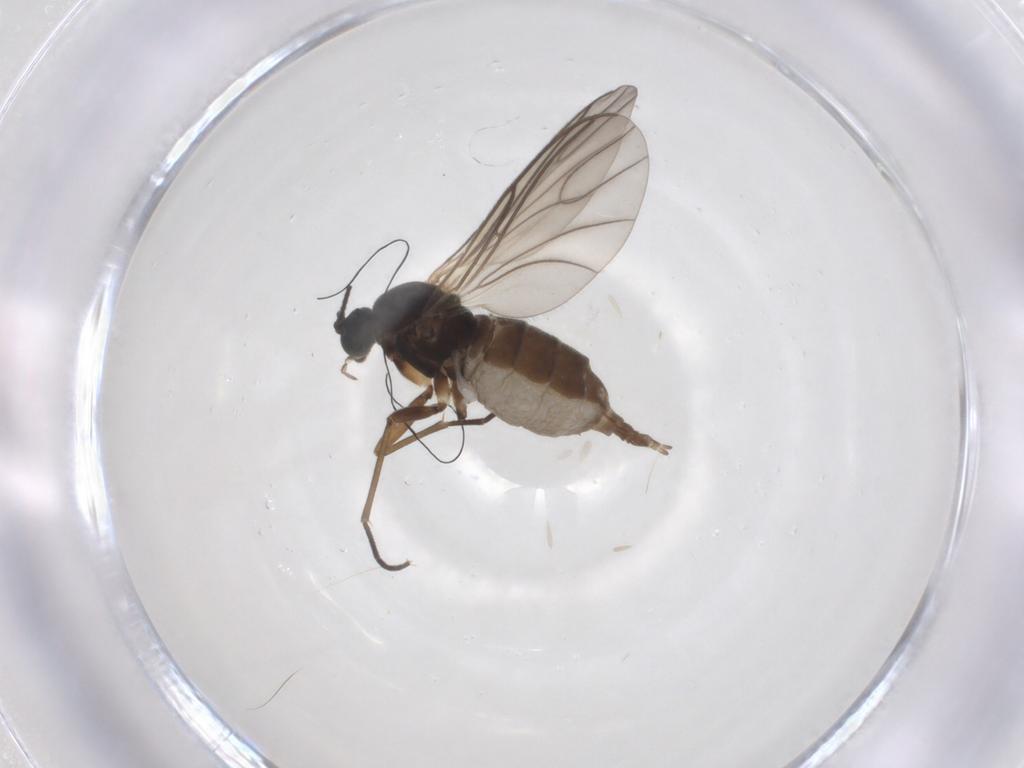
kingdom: Animalia
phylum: Arthropoda
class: Insecta
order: Diptera
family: Sciaridae
